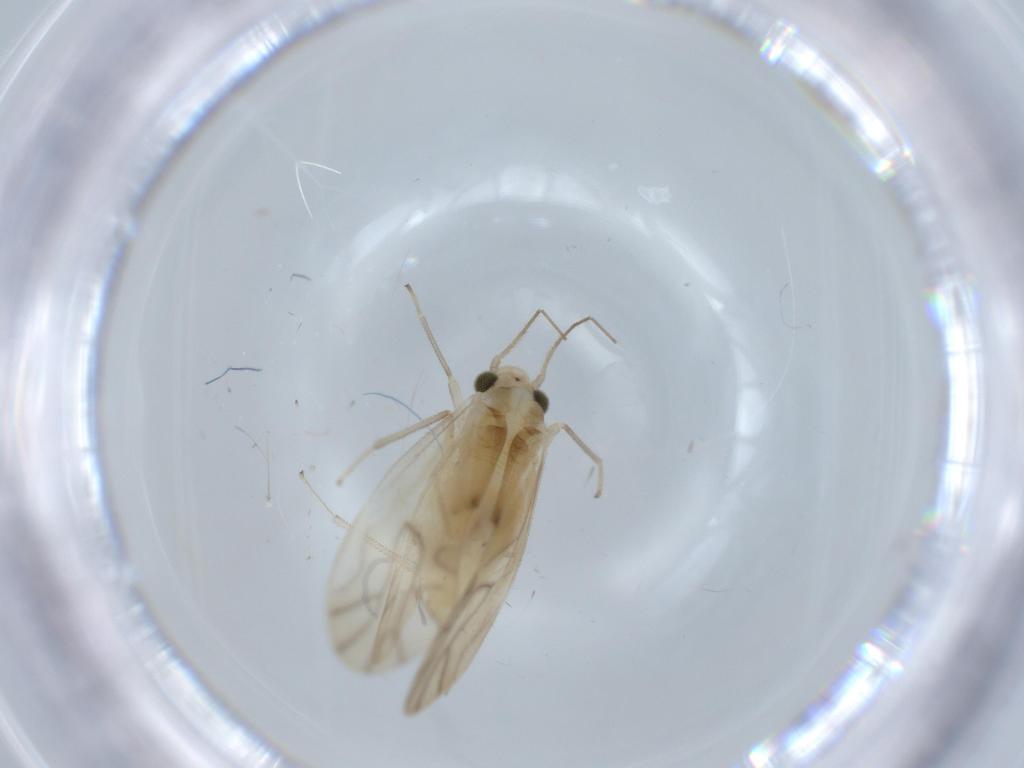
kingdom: Animalia
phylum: Arthropoda
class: Insecta
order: Psocodea
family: Caeciliusidae
